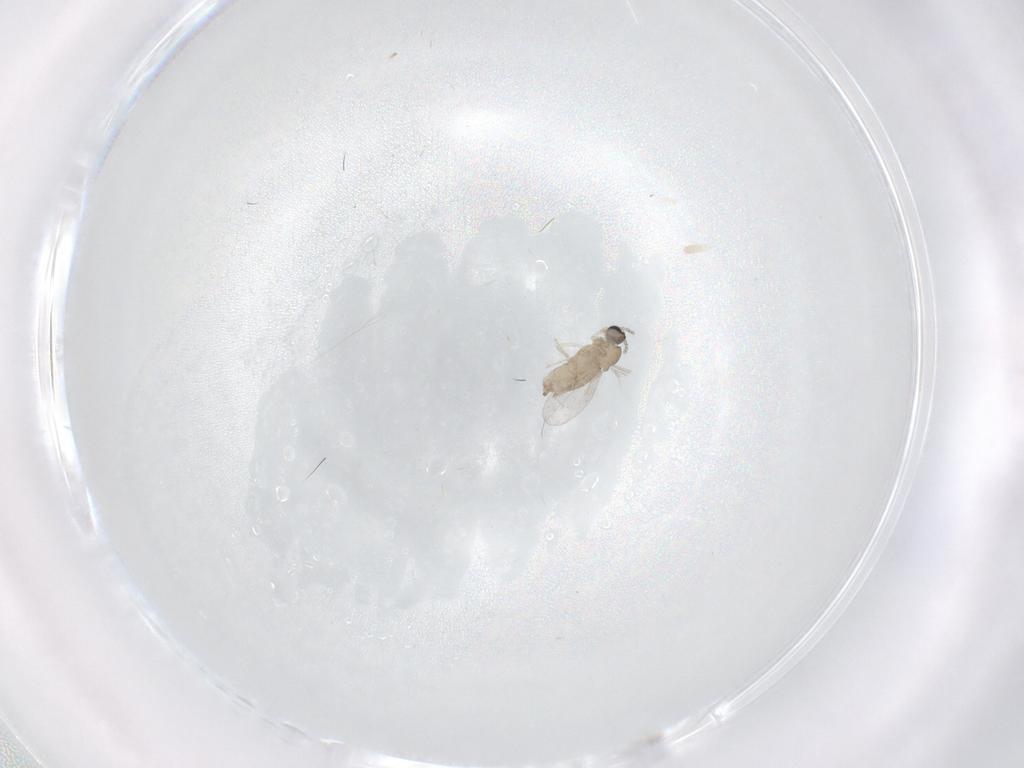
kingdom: Animalia
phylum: Arthropoda
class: Insecta
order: Diptera
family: Cecidomyiidae
